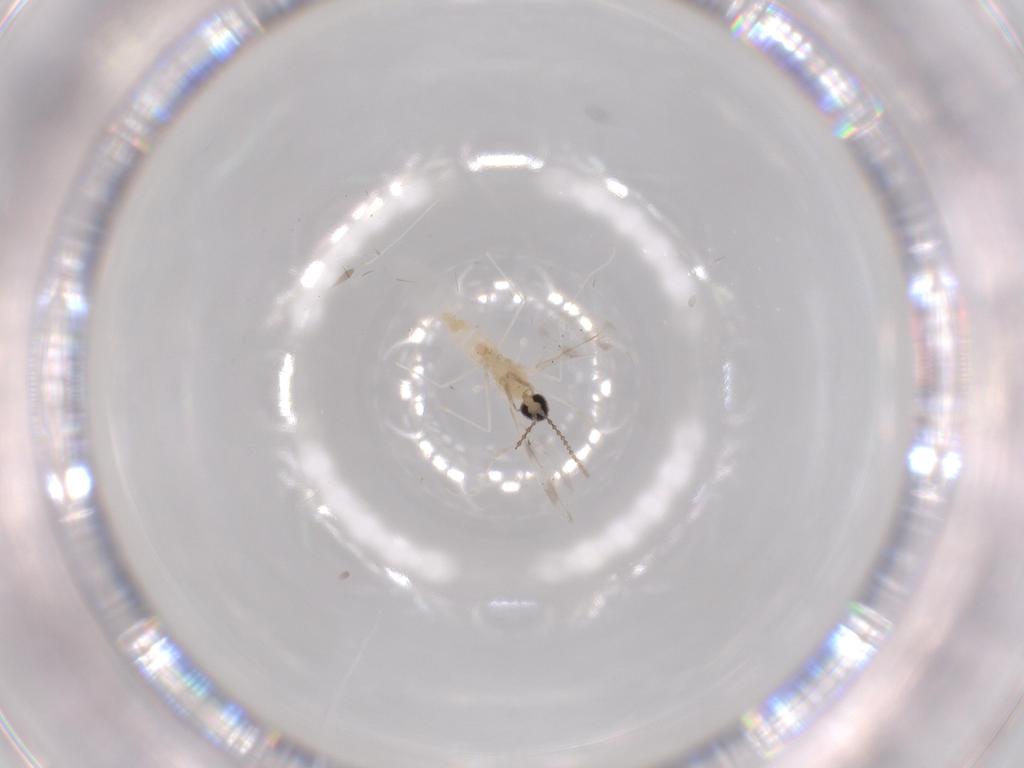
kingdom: Animalia
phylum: Arthropoda
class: Insecta
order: Diptera
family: Cecidomyiidae
